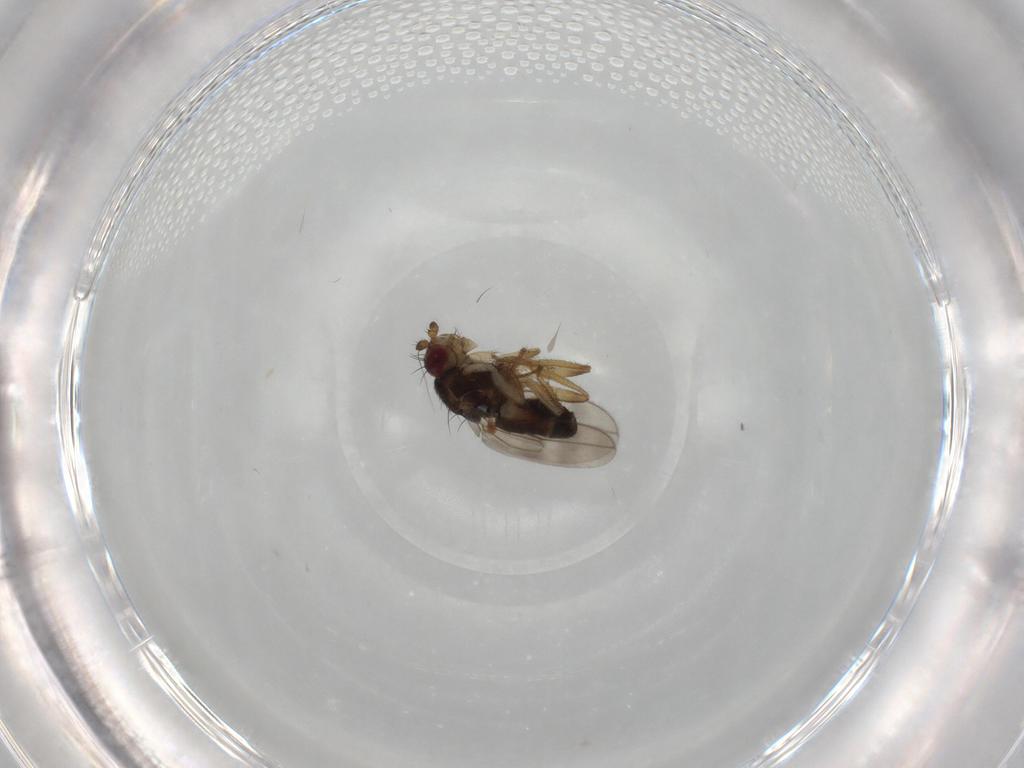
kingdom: Animalia
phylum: Arthropoda
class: Insecta
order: Diptera
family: Sphaeroceridae
